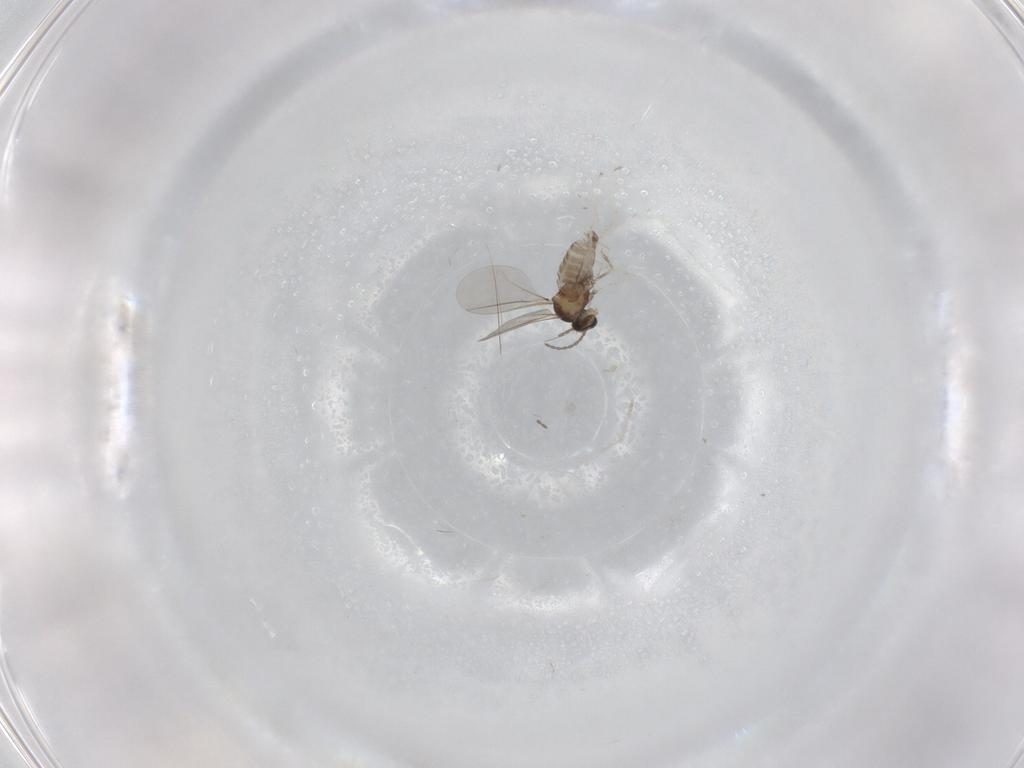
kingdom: Animalia
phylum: Arthropoda
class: Insecta
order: Diptera
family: Cecidomyiidae
